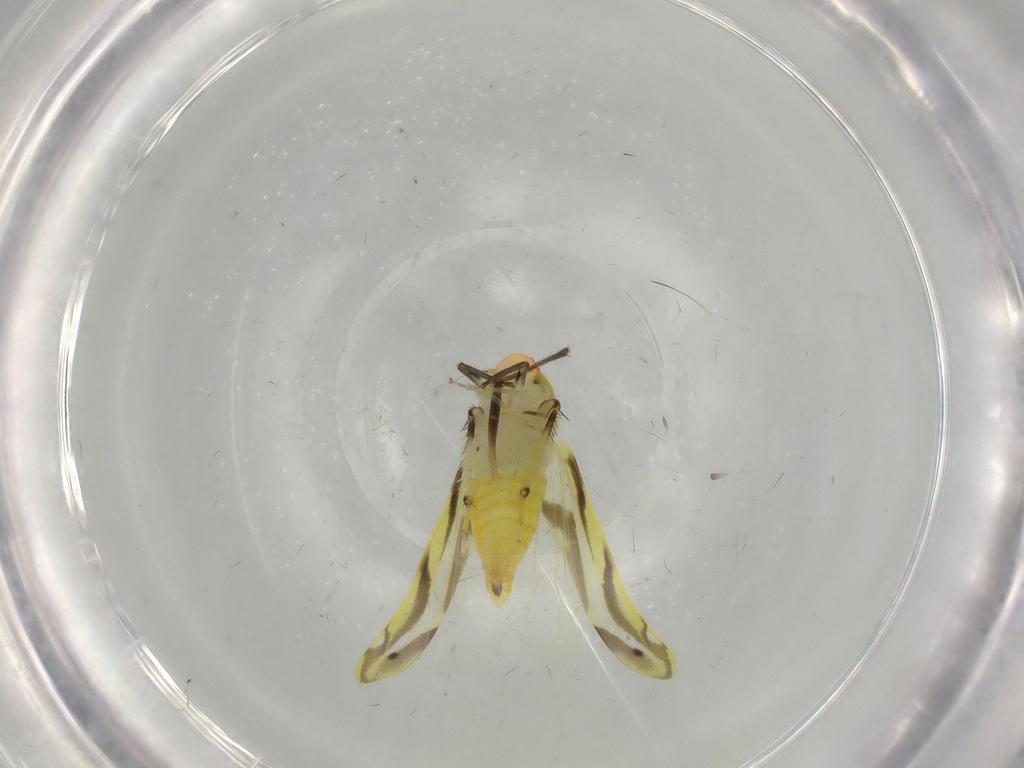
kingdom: Animalia
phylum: Arthropoda
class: Insecta
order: Hemiptera
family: Cicadellidae
